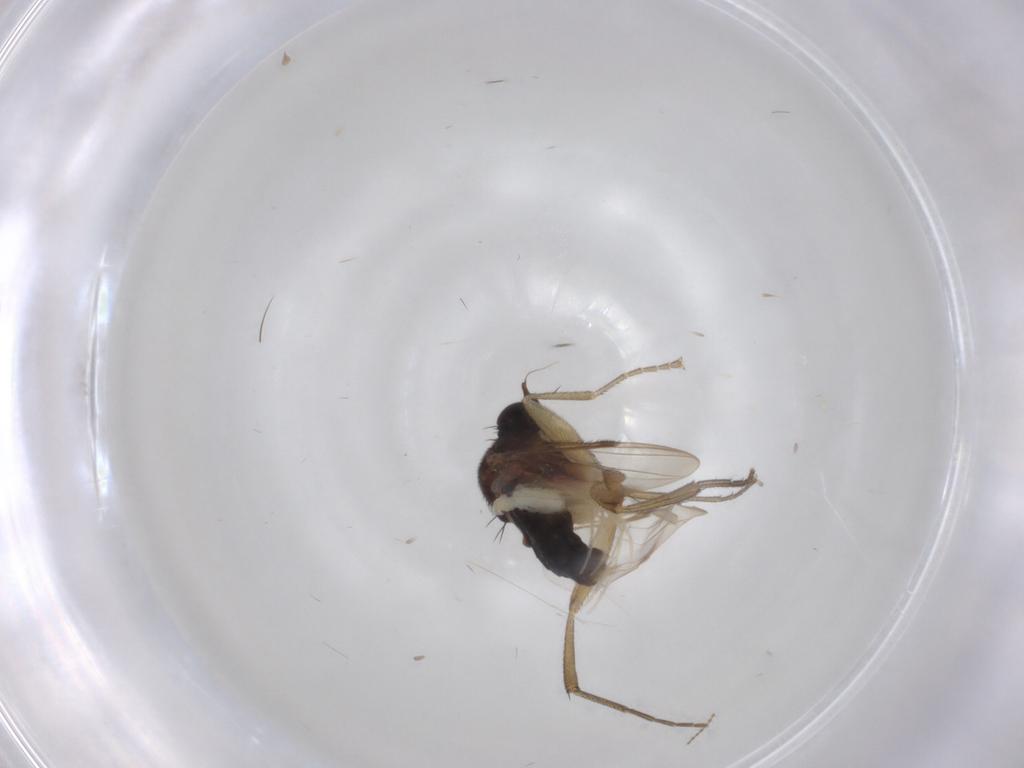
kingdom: Animalia
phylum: Arthropoda
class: Insecta
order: Diptera
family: Phoridae
